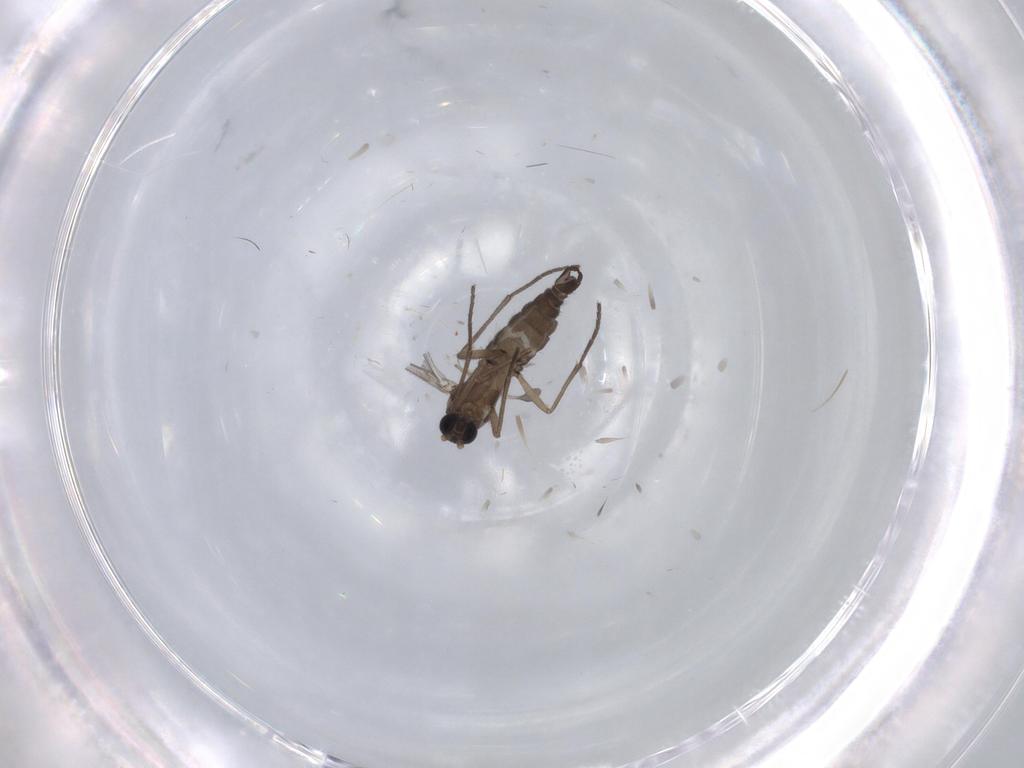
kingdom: Animalia
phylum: Arthropoda
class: Insecta
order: Diptera
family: Sciaridae
